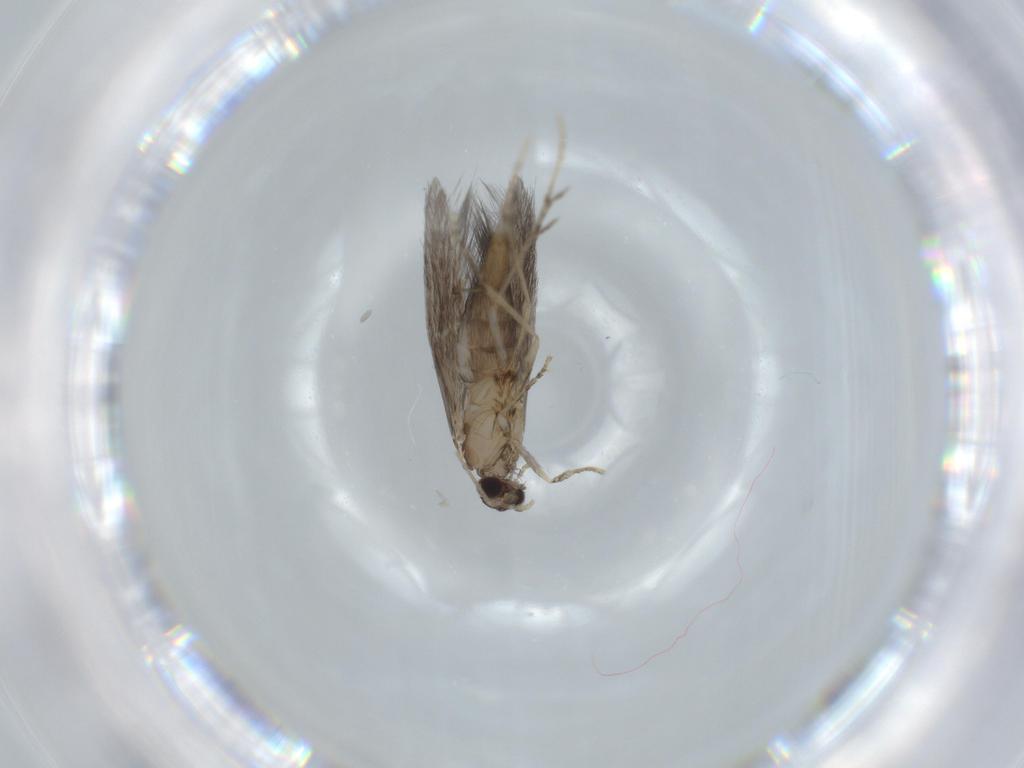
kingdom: Animalia
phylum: Arthropoda
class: Insecta
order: Trichoptera
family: Hydroptilidae
